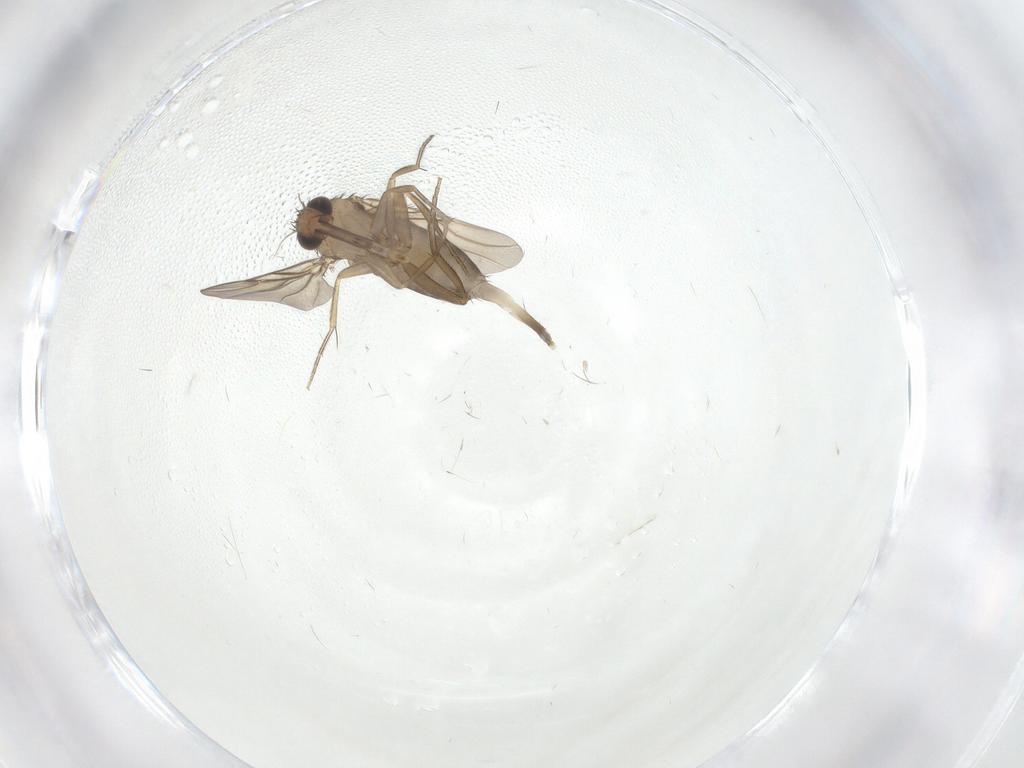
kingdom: Animalia
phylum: Arthropoda
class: Insecta
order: Diptera
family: Phoridae
